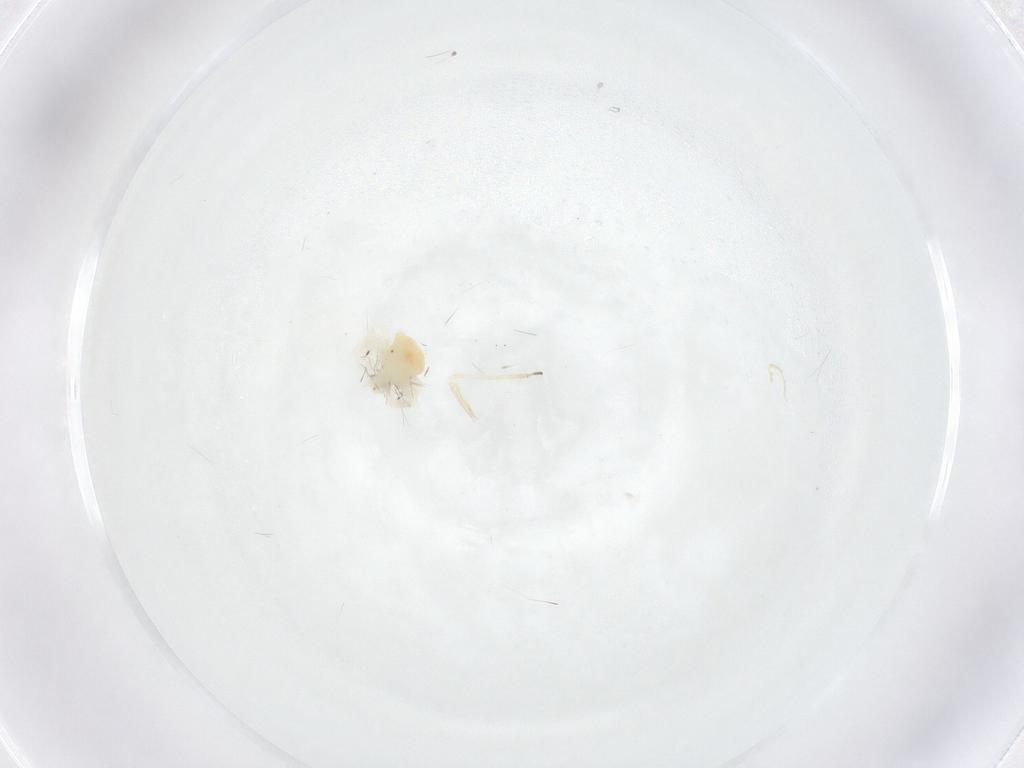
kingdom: Animalia
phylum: Arthropoda
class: Arachnida
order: Trombidiformes
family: Anystidae
